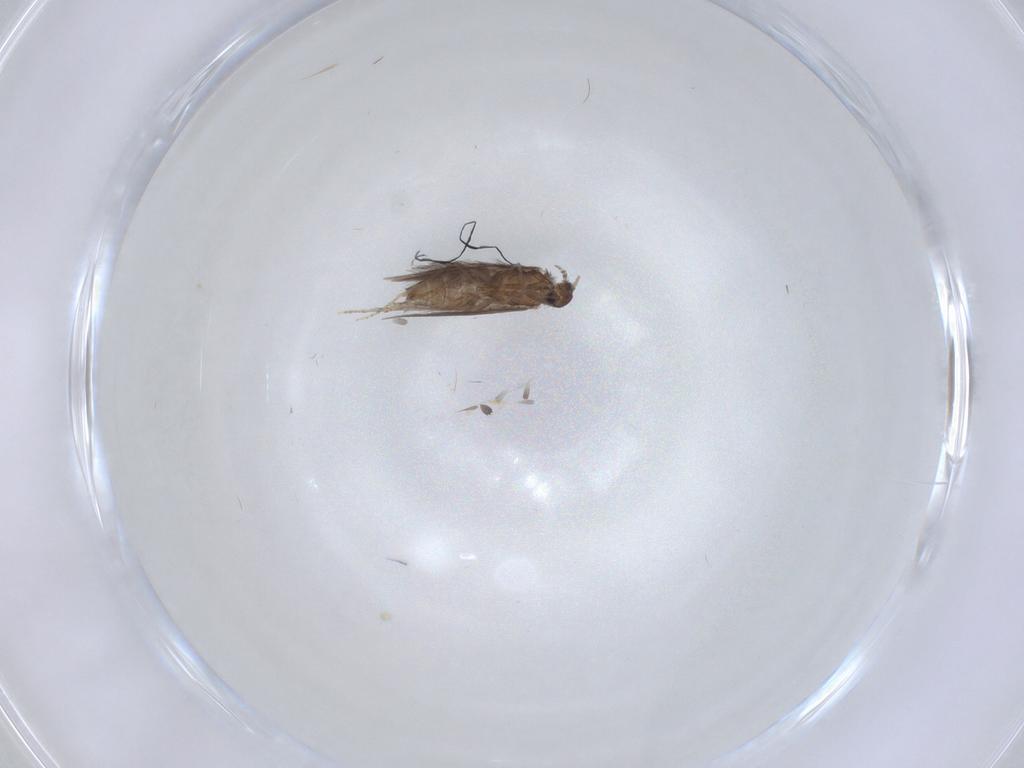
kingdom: Animalia
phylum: Arthropoda
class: Insecta
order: Trichoptera
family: Hydroptilidae
